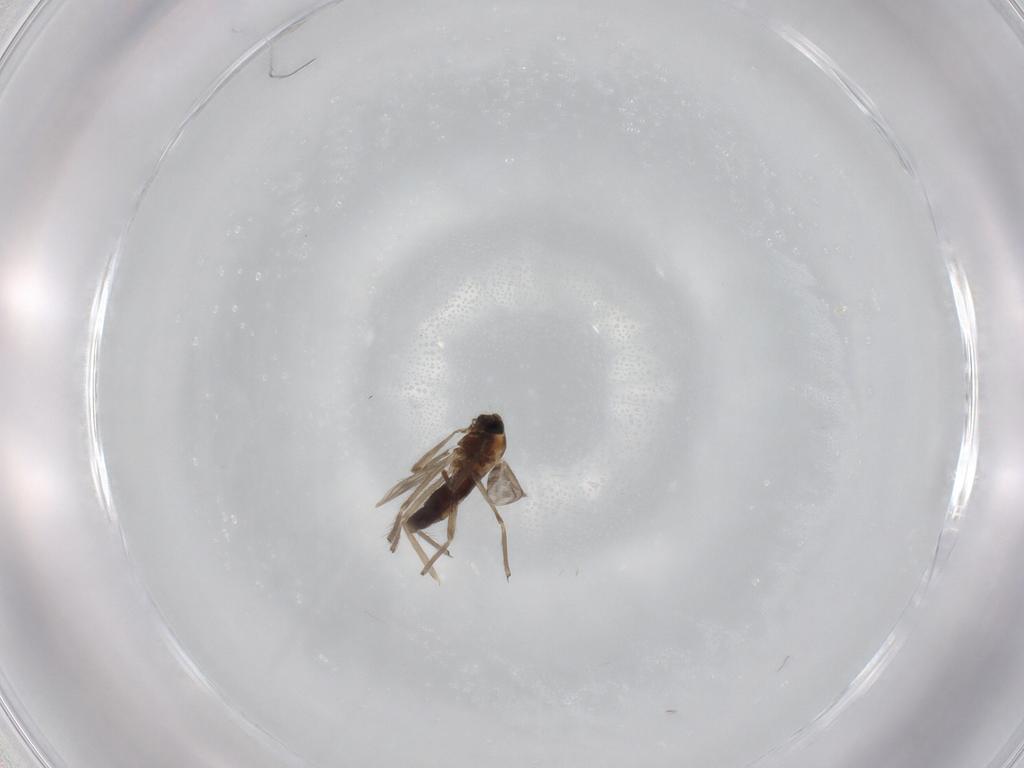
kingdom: Animalia
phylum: Arthropoda
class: Insecta
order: Diptera
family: Chironomidae
